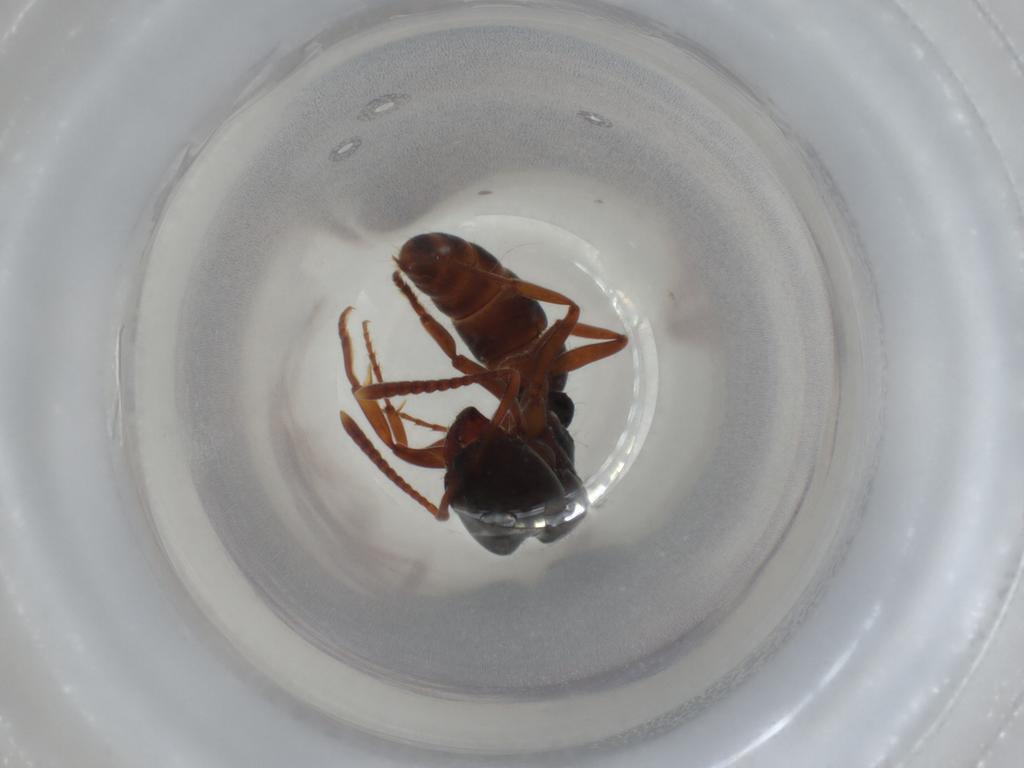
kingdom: Animalia
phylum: Arthropoda
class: Insecta
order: Hymenoptera
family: Formicidae
